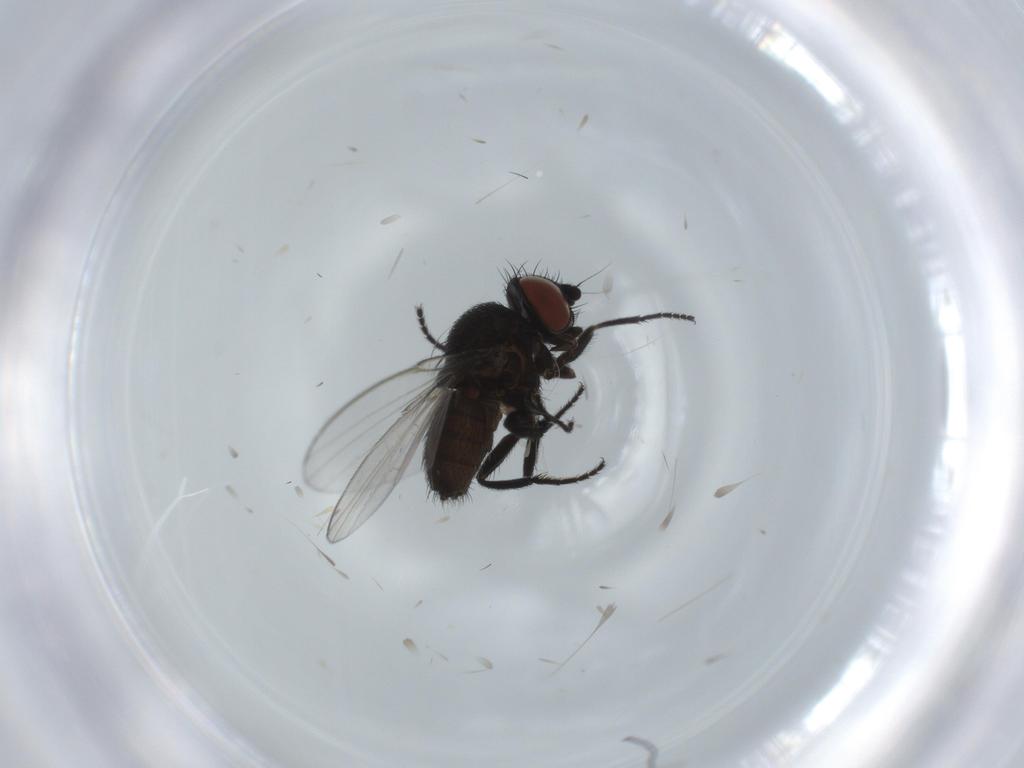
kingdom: Animalia
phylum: Arthropoda
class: Insecta
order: Diptera
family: Milichiidae
